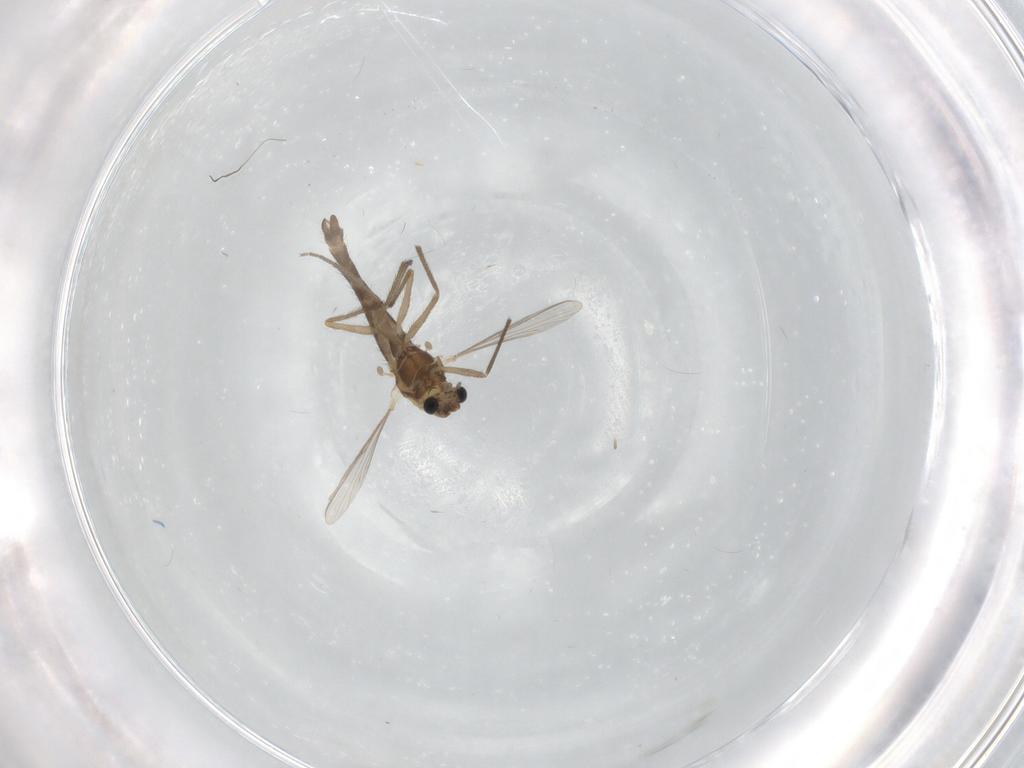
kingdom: Animalia
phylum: Arthropoda
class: Insecta
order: Diptera
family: Chironomidae
